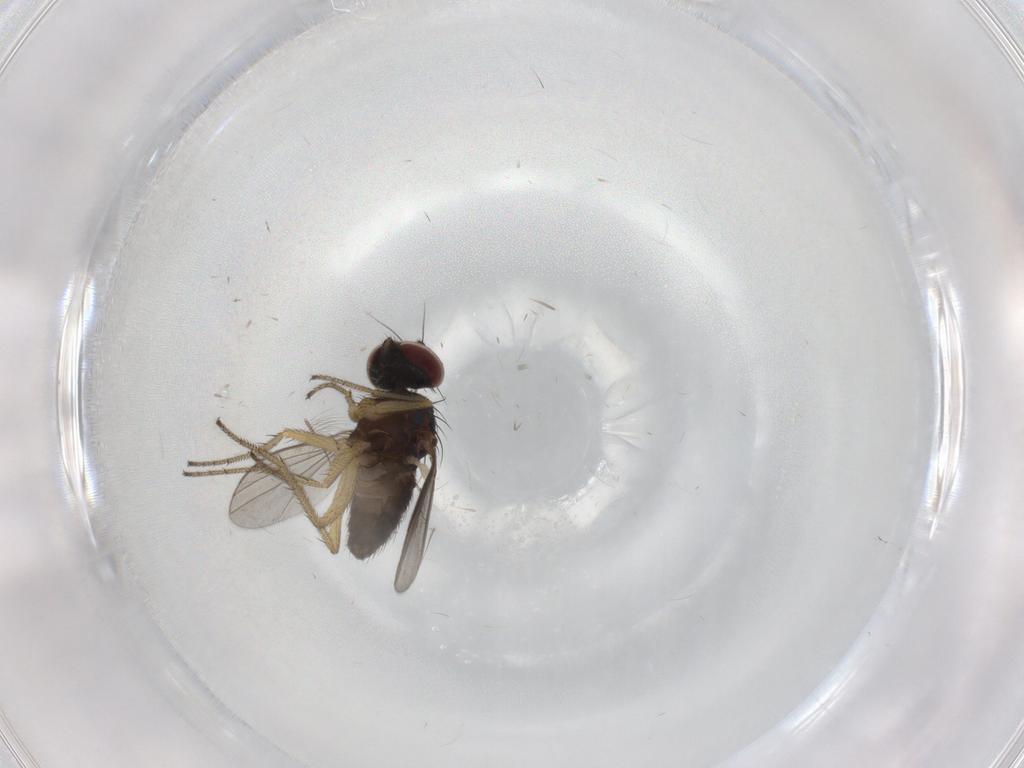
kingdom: Animalia
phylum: Arthropoda
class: Insecta
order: Diptera
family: Dolichopodidae
